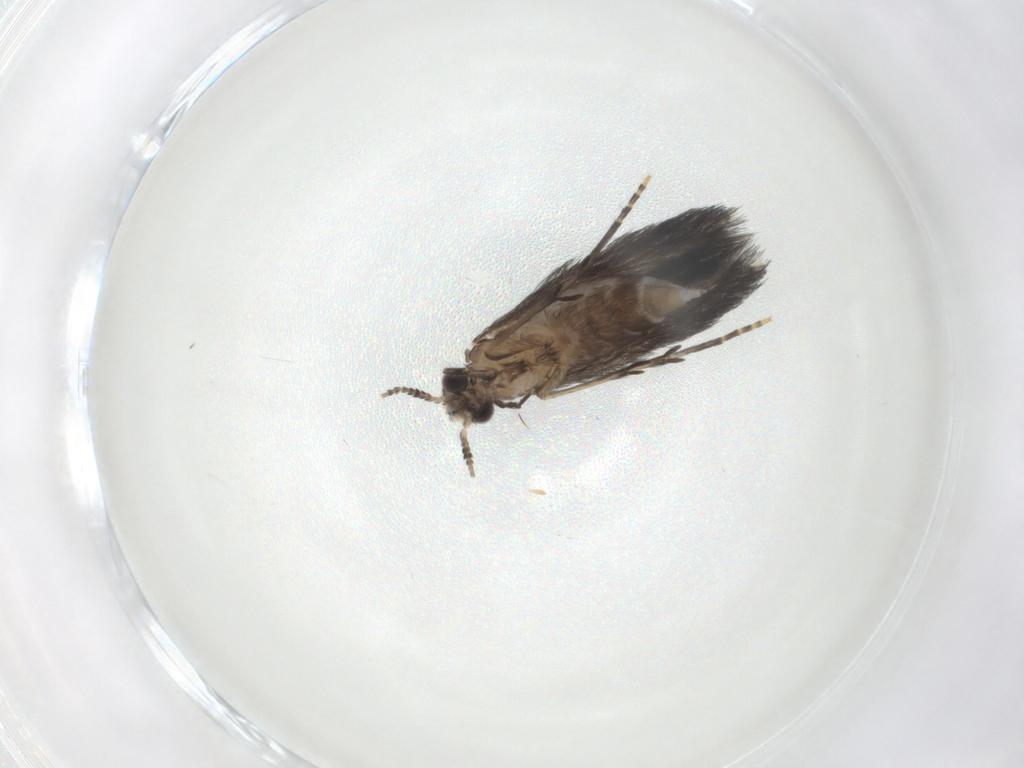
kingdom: Animalia
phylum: Arthropoda
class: Insecta
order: Trichoptera
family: Hydroptilidae
